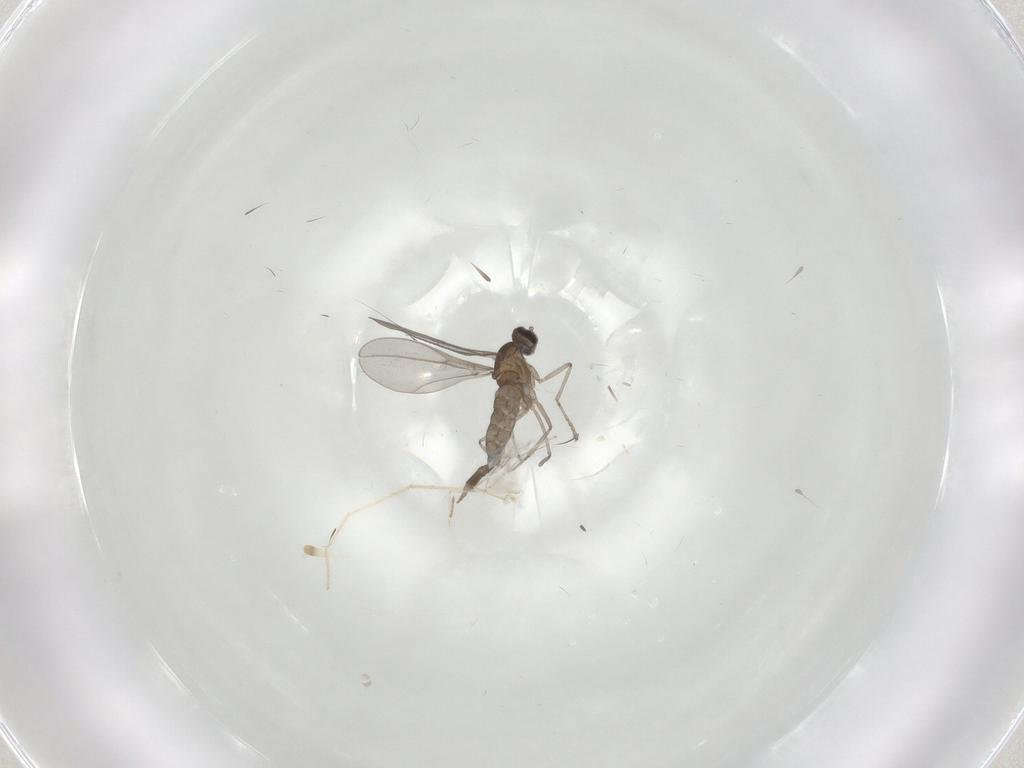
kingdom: Animalia
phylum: Arthropoda
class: Insecta
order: Diptera
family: Cecidomyiidae
